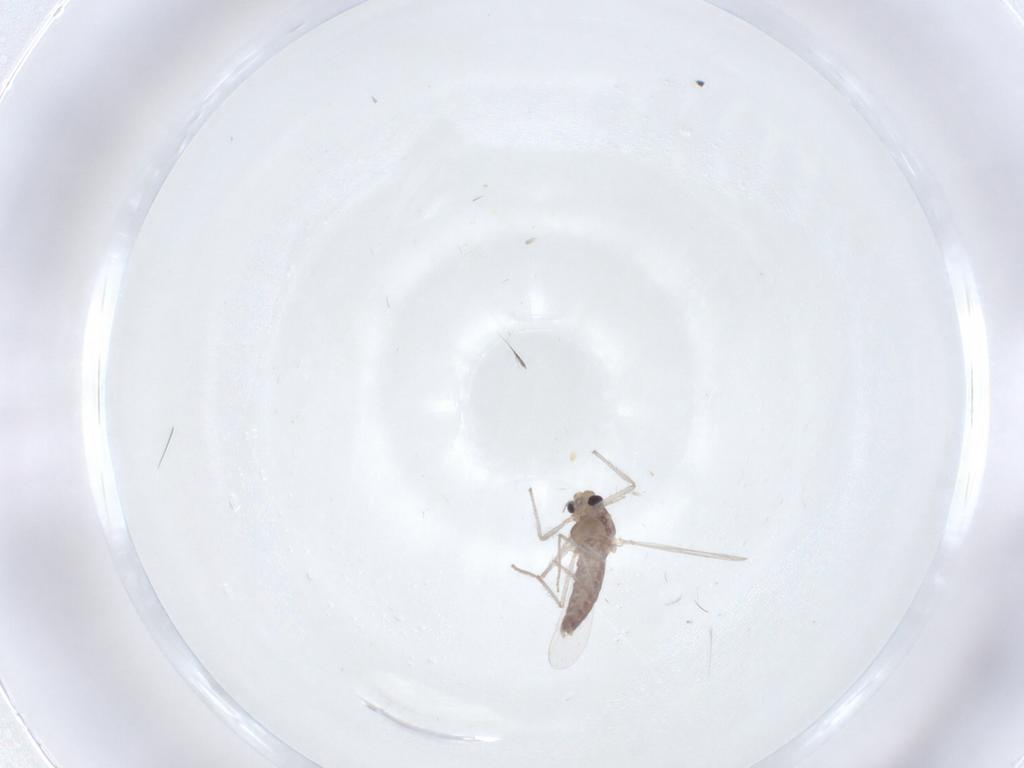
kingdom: Animalia
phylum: Arthropoda
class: Insecta
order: Diptera
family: Chironomidae
